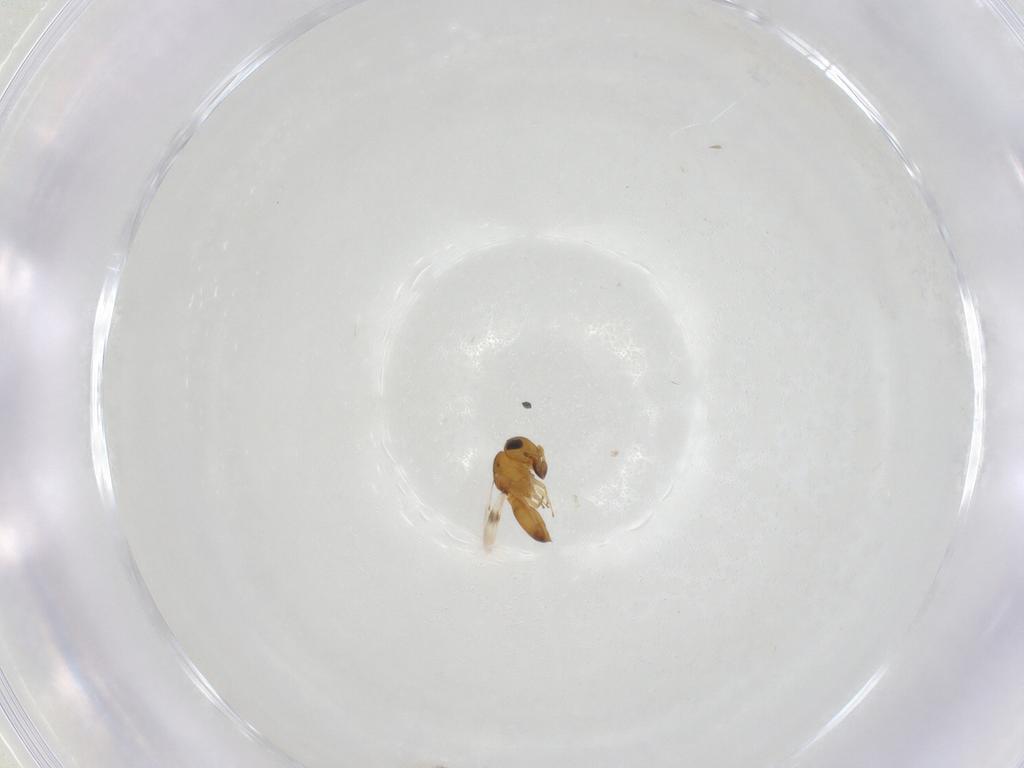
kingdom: Animalia
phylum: Arthropoda
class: Insecta
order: Hymenoptera
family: Scelionidae
